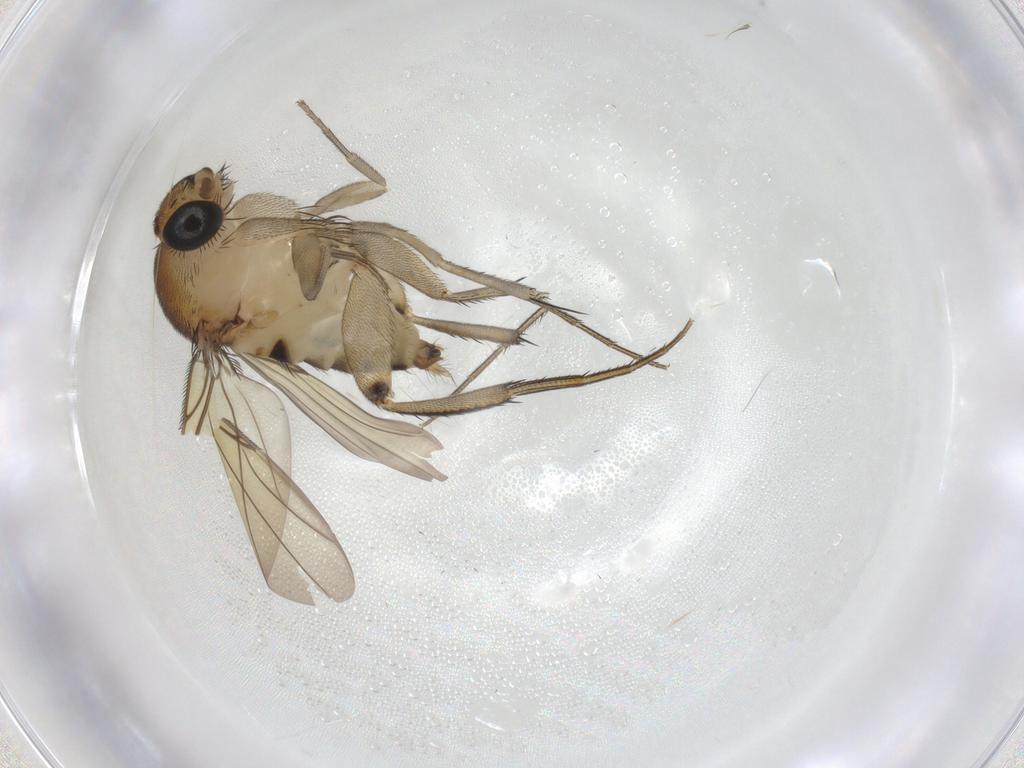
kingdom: Animalia
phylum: Arthropoda
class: Insecta
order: Diptera
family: Phoridae
